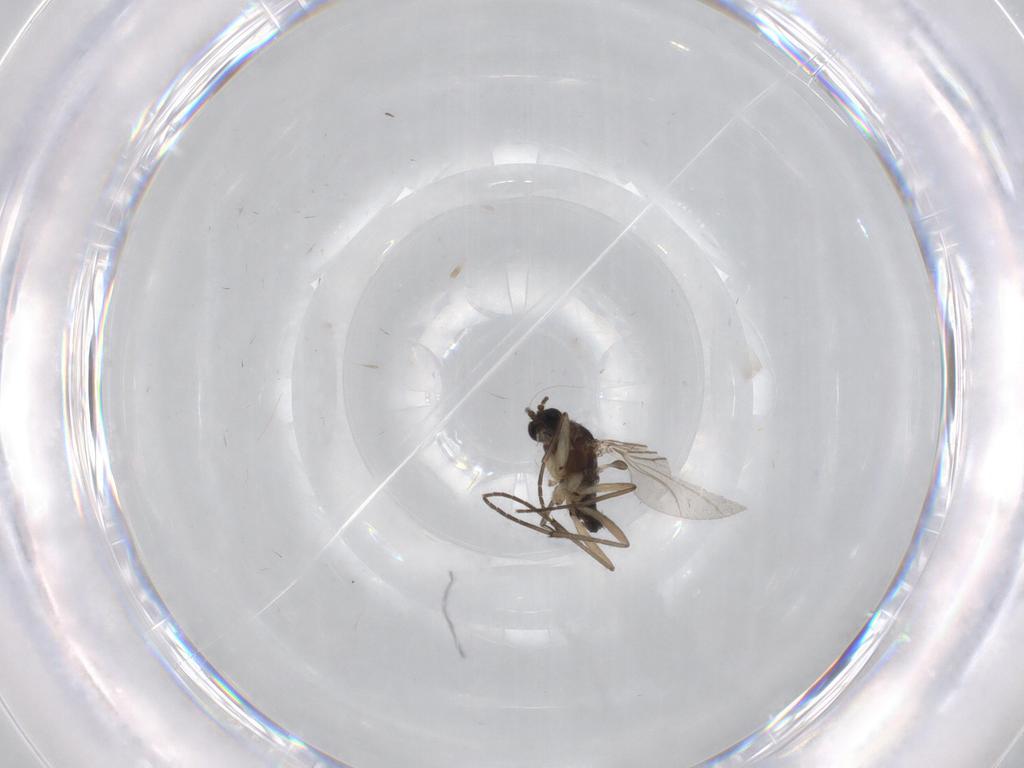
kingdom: Animalia
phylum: Arthropoda
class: Insecta
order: Diptera
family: Sciaridae
